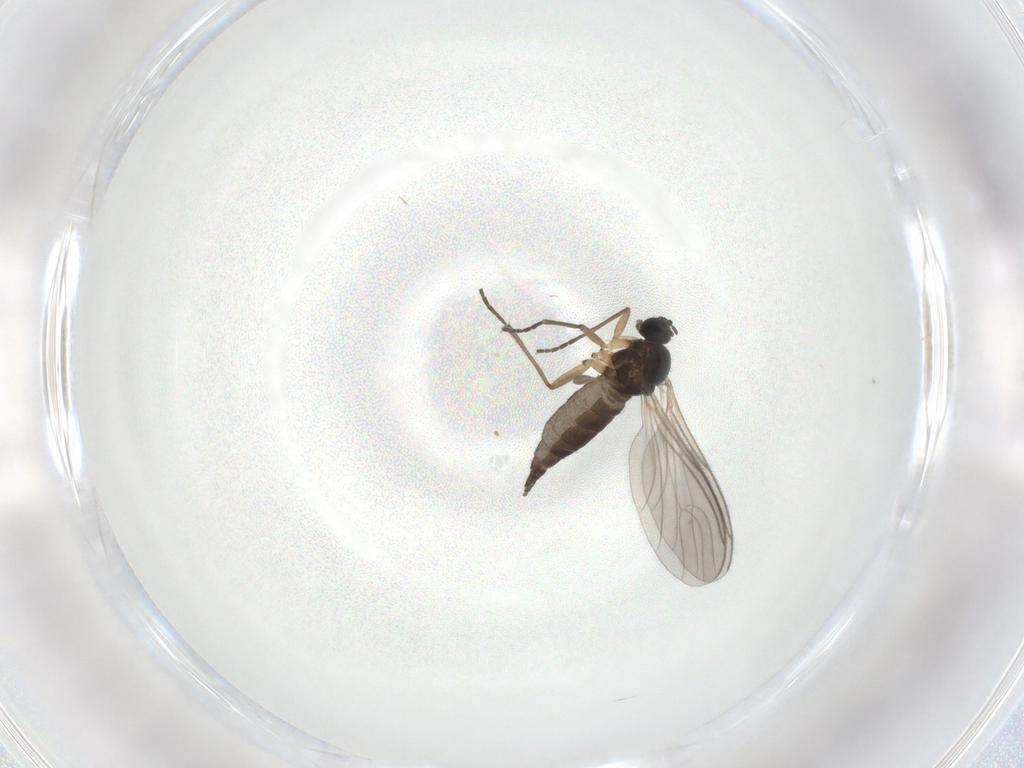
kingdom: Animalia
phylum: Arthropoda
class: Insecta
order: Diptera
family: Sciaridae
